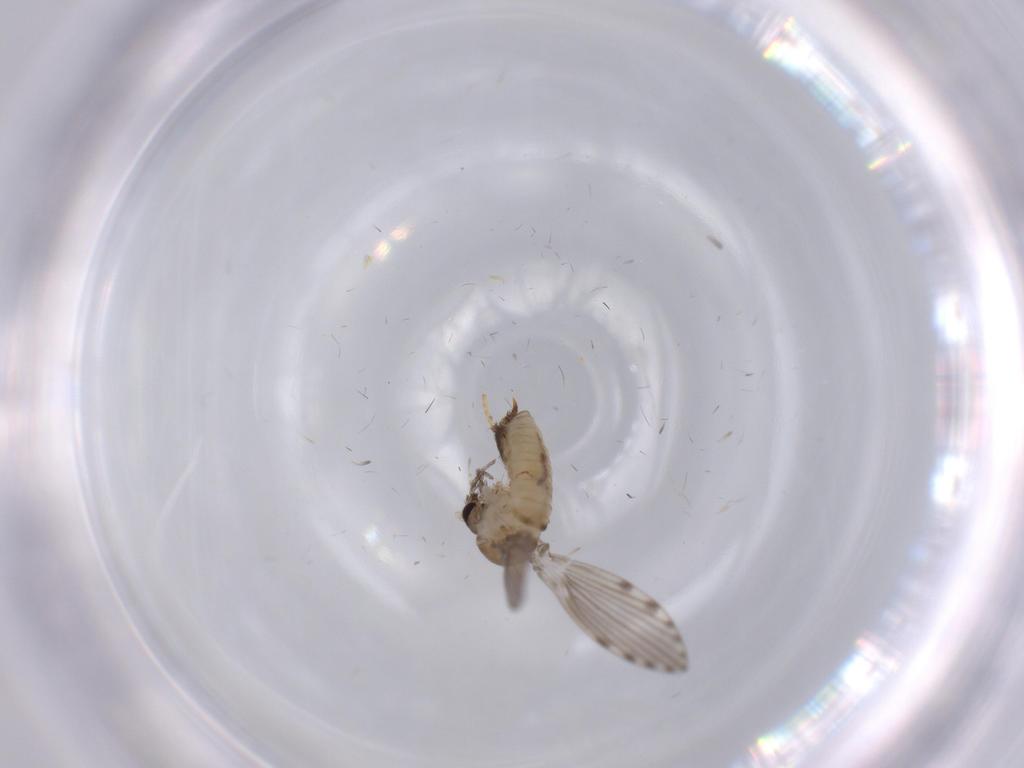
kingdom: Animalia
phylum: Arthropoda
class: Insecta
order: Diptera
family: Psychodidae
